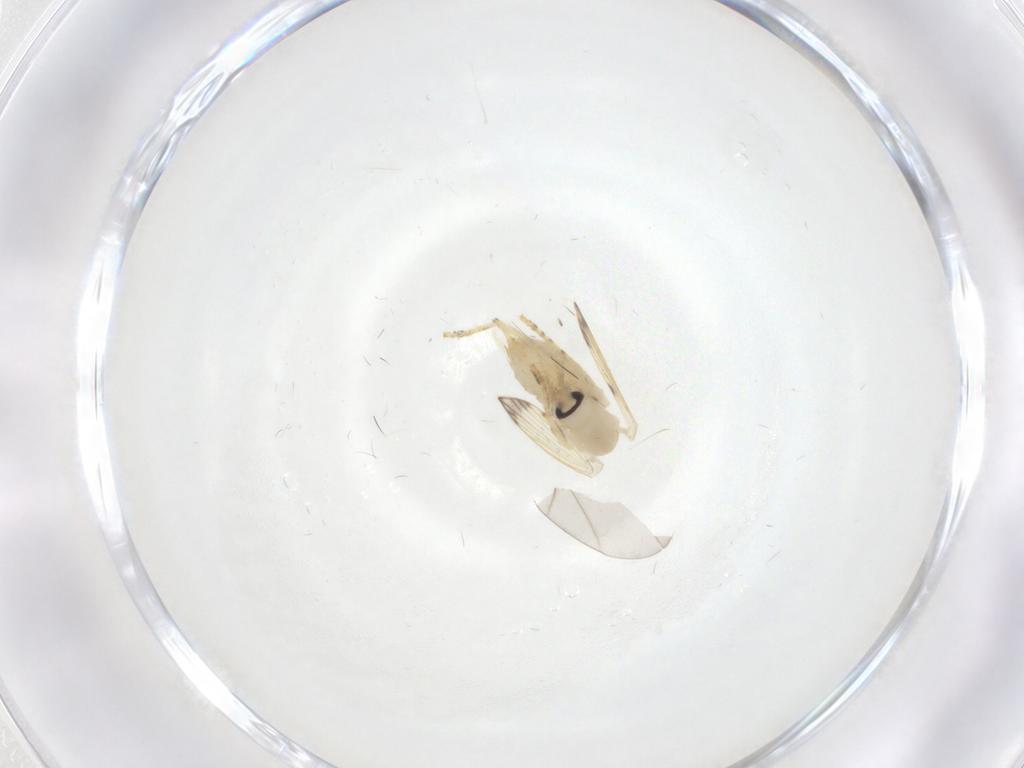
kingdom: Animalia
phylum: Arthropoda
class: Insecta
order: Diptera
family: Psychodidae
